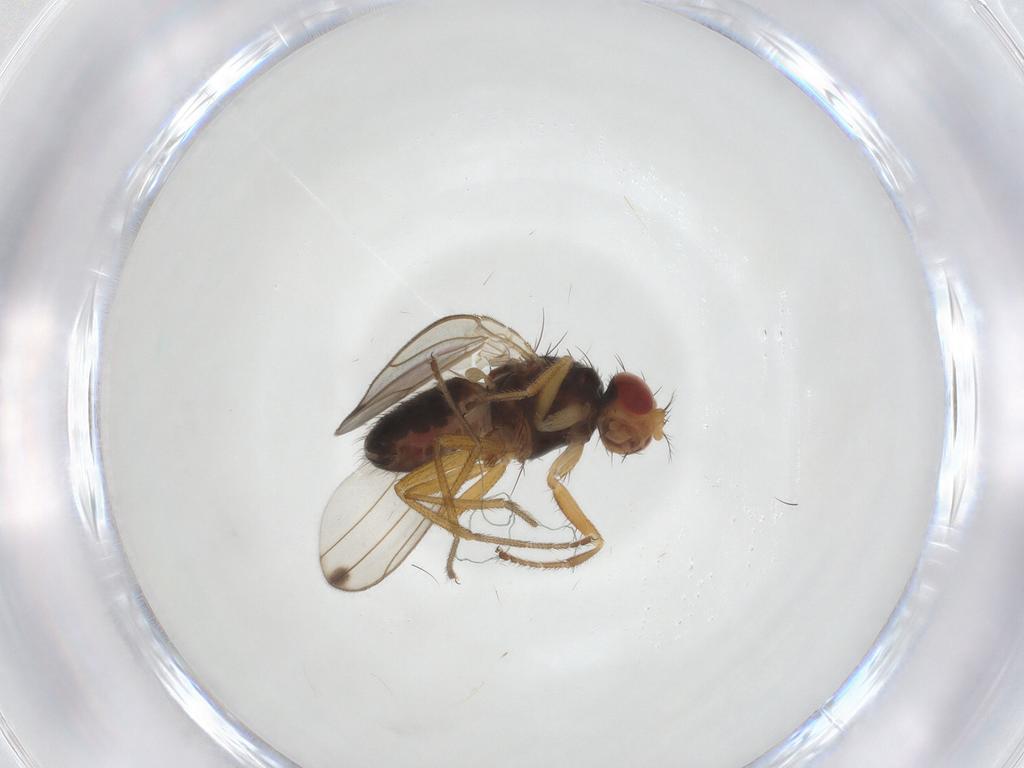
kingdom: Animalia
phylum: Arthropoda
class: Insecta
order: Diptera
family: Drosophilidae
